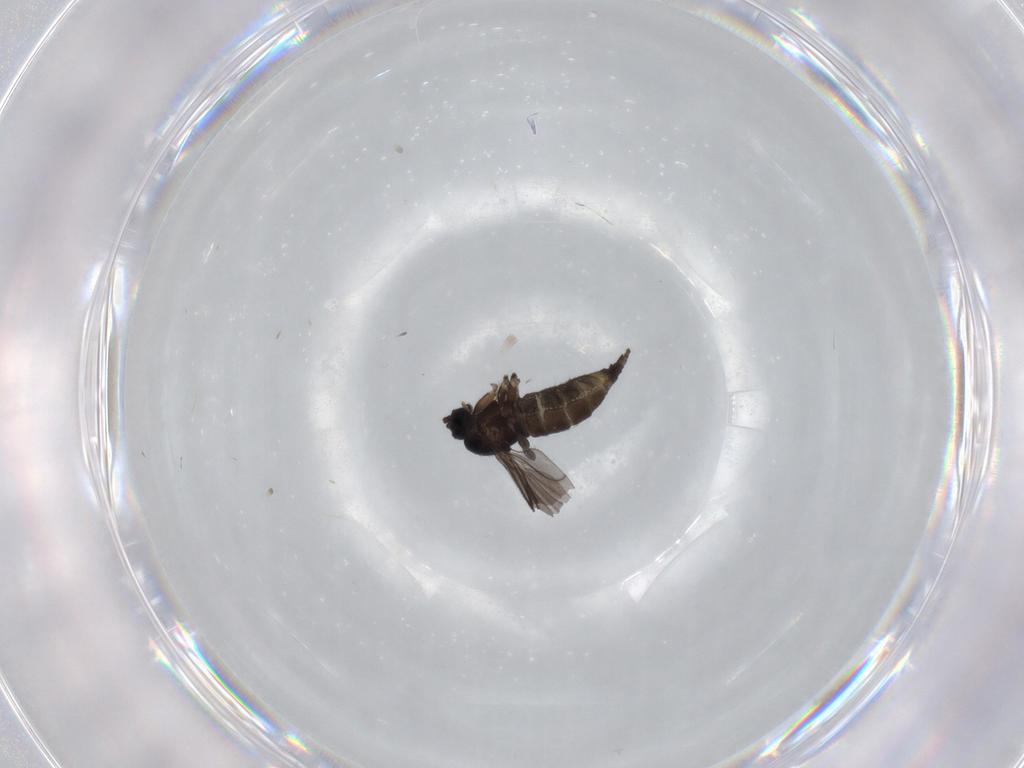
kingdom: Animalia
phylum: Arthropoda
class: Insecta
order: Diptera
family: Sciaridae
